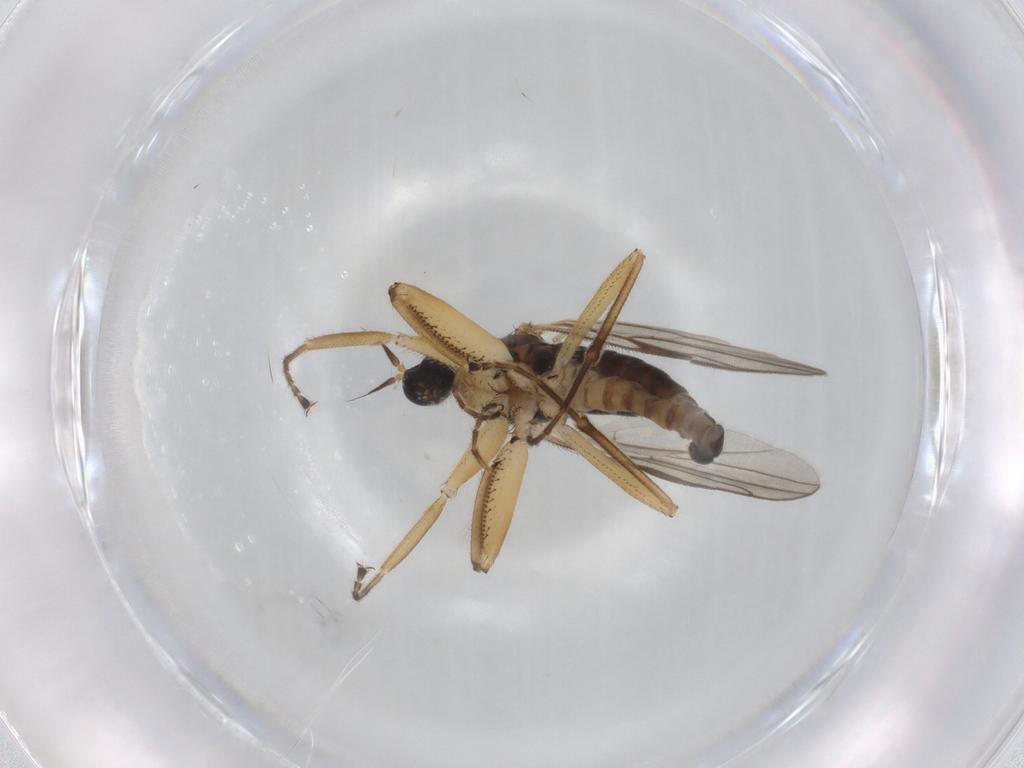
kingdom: Animalia
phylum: Arthropoda
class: Insecta
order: Diptera
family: Hybotidae
